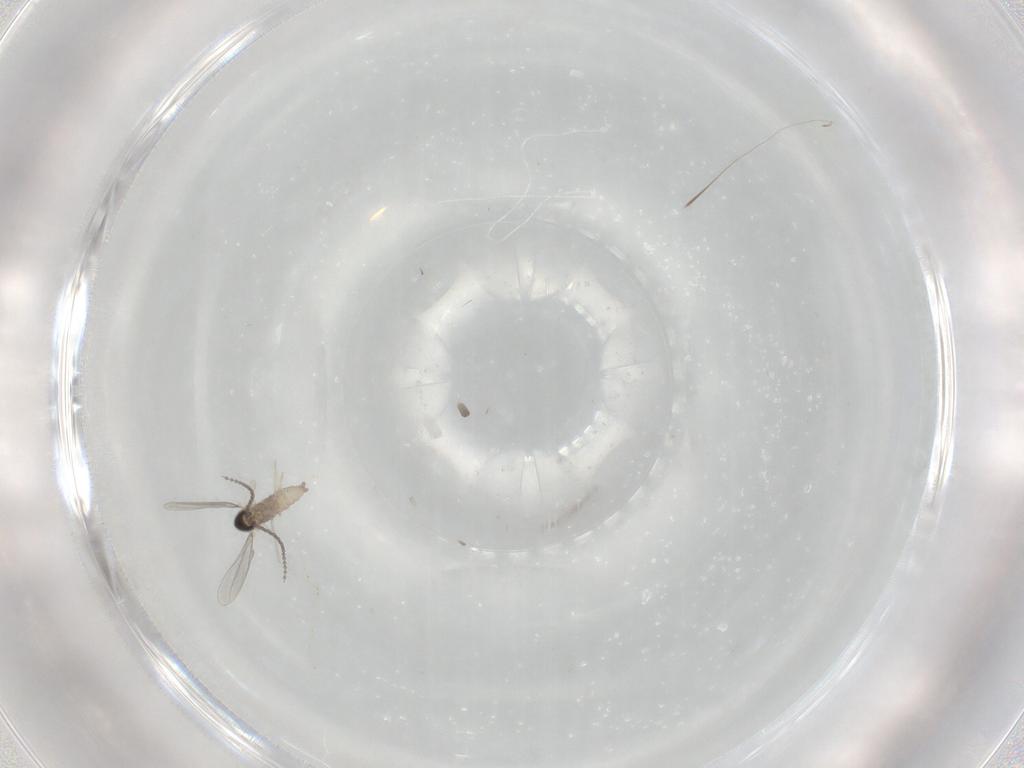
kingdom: Animalia
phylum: Arthropoda
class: Insecta
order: Diptera
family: Cecidomyiidae
